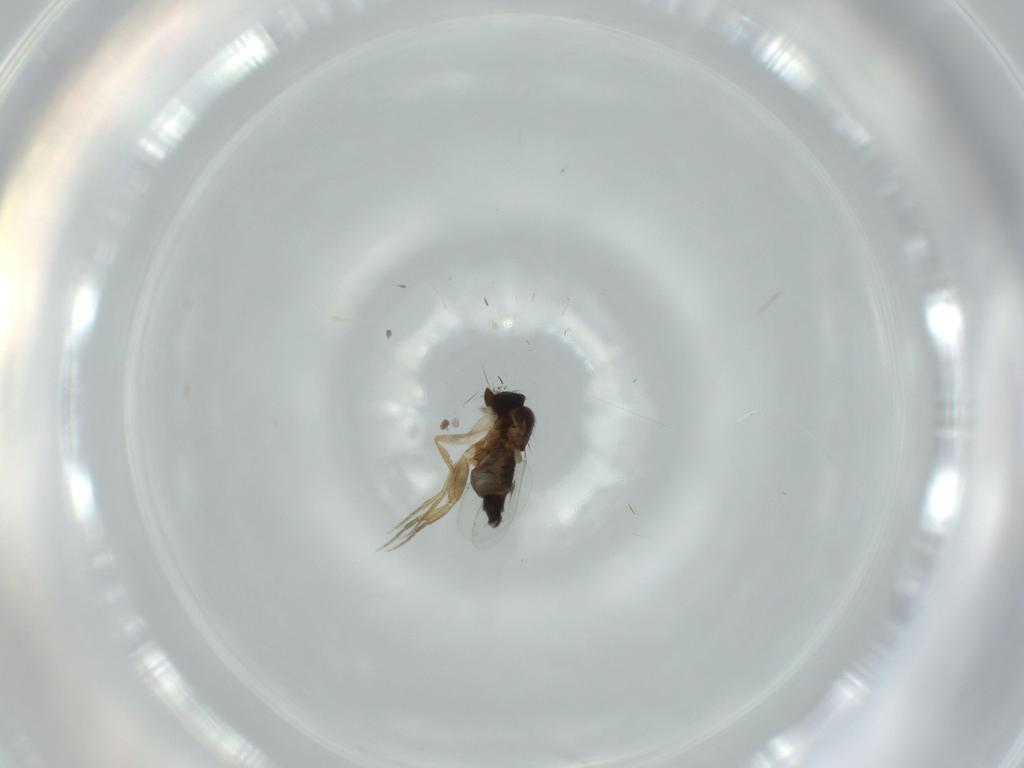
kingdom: Animalia
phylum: Arthropoda
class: Insecta
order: Diptera
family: Phoridae
